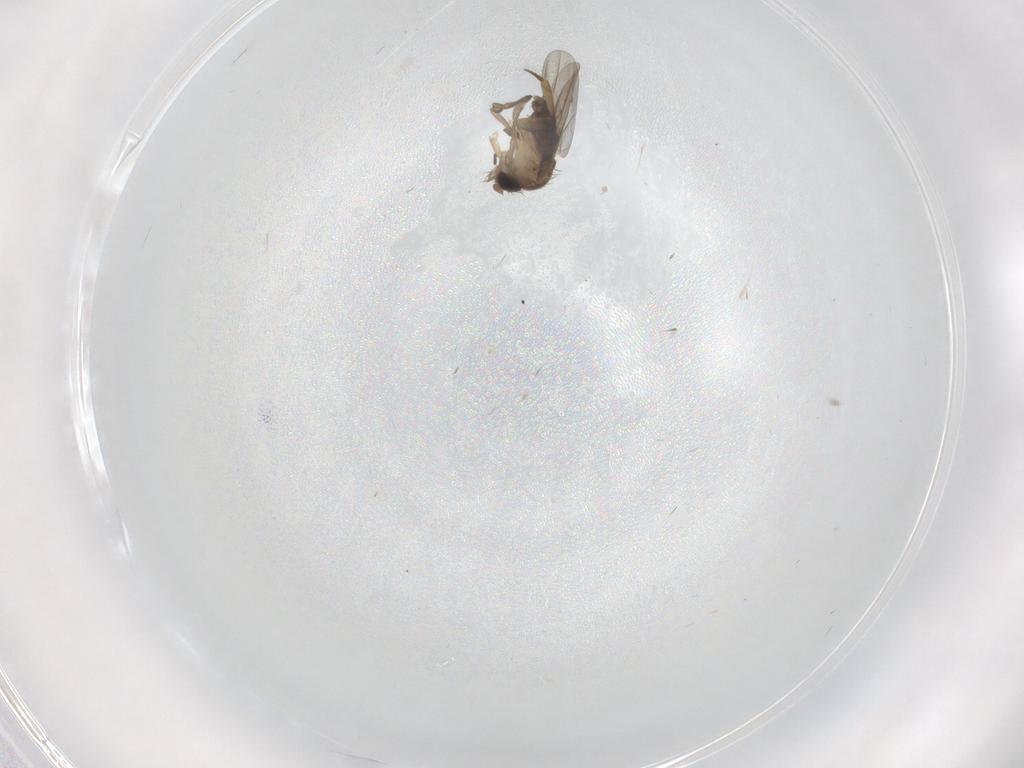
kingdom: Animalia
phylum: Arthropoda
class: Insecta
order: Diptera
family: Phoridae
